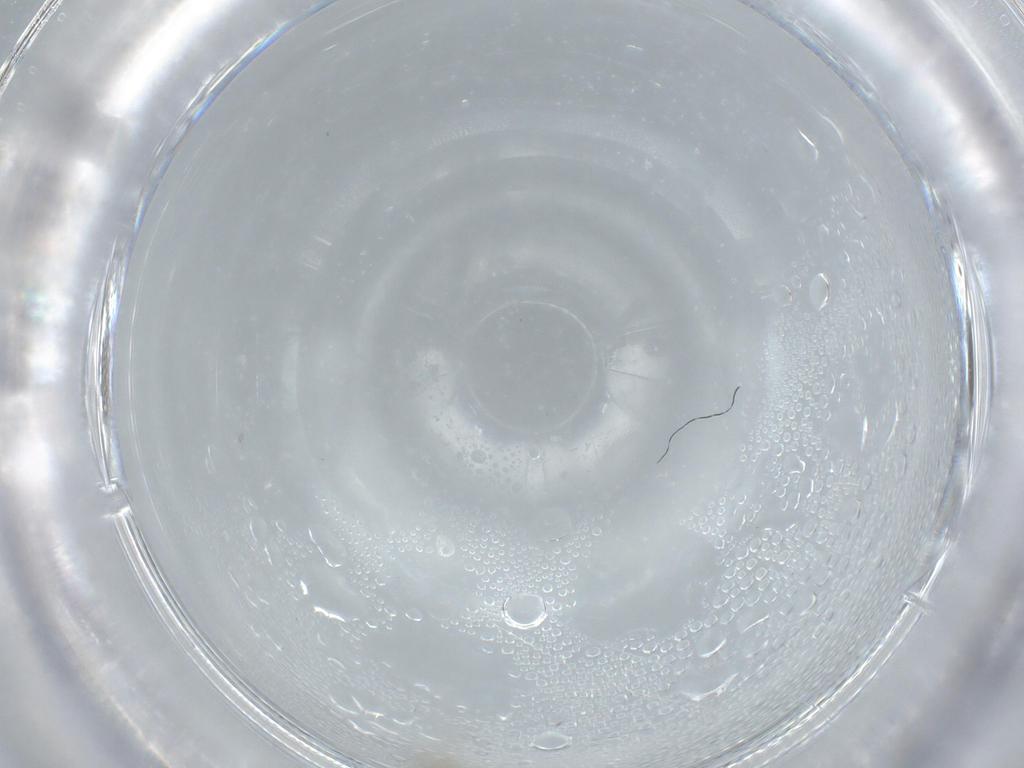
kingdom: Animalia
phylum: Arthropoda
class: Insecta
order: Diptera
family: Cecidomyiidae
